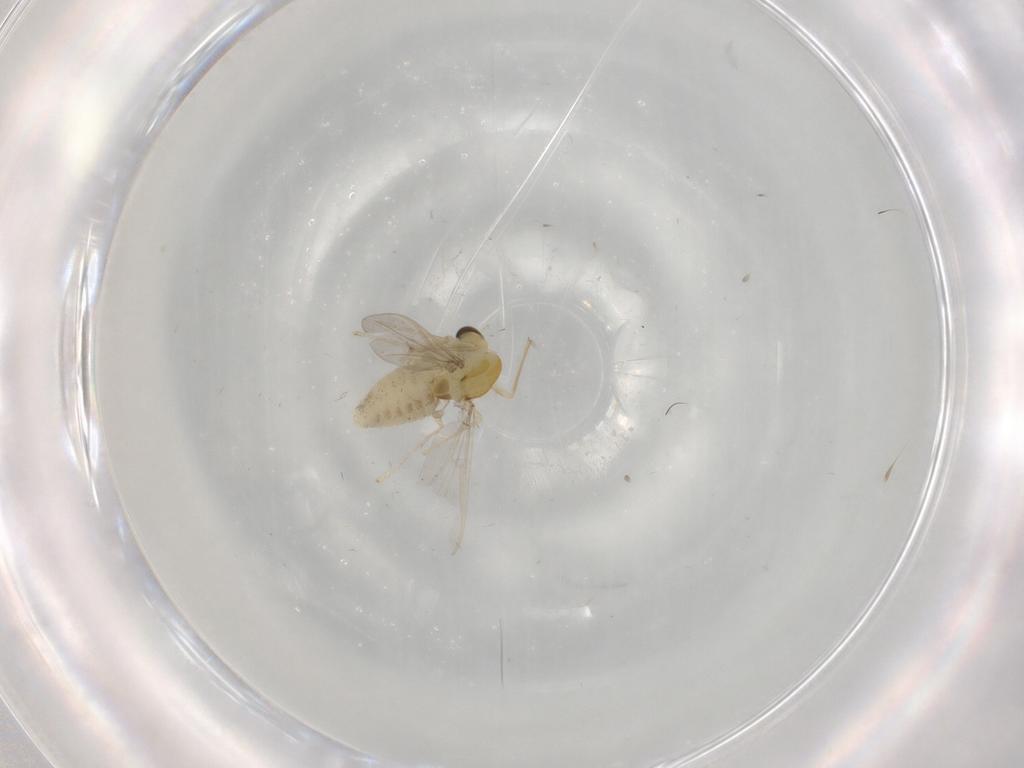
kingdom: Animalia
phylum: Arthropoda
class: Insecta
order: Diptera
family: Chironomidae
